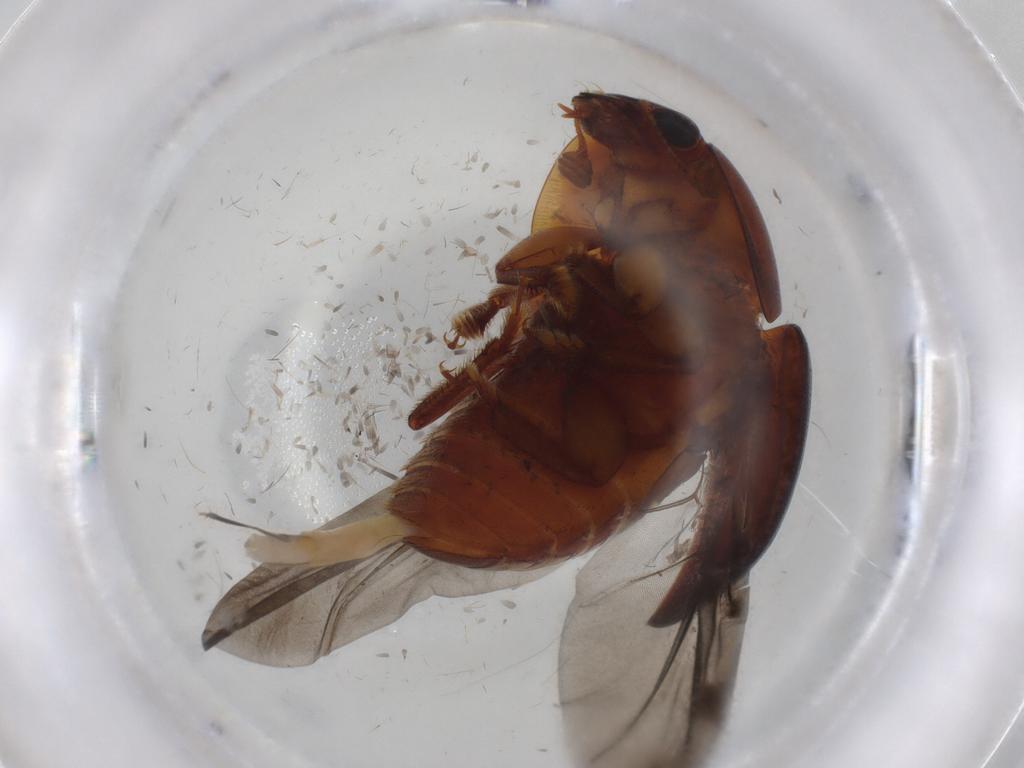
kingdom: Animalia
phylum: Arthropoda
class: Insecta
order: Coleoptera
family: Nitidulidae
